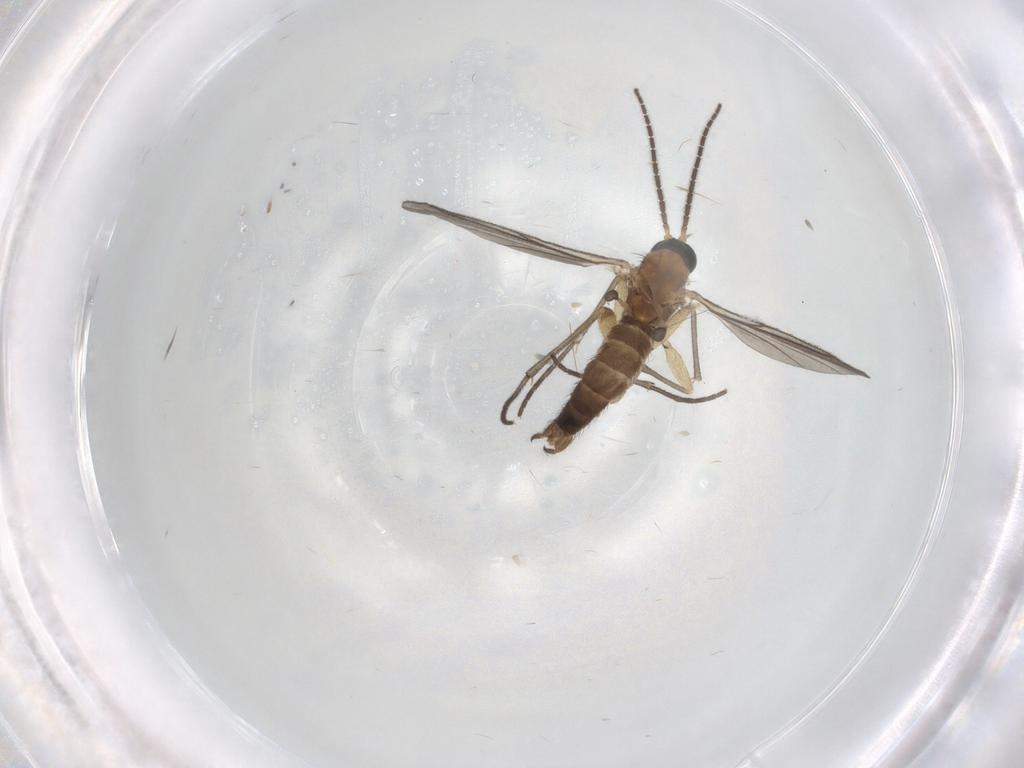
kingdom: Animalia
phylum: Arthropoda
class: Insecta
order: Diptera
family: Sciaridae
